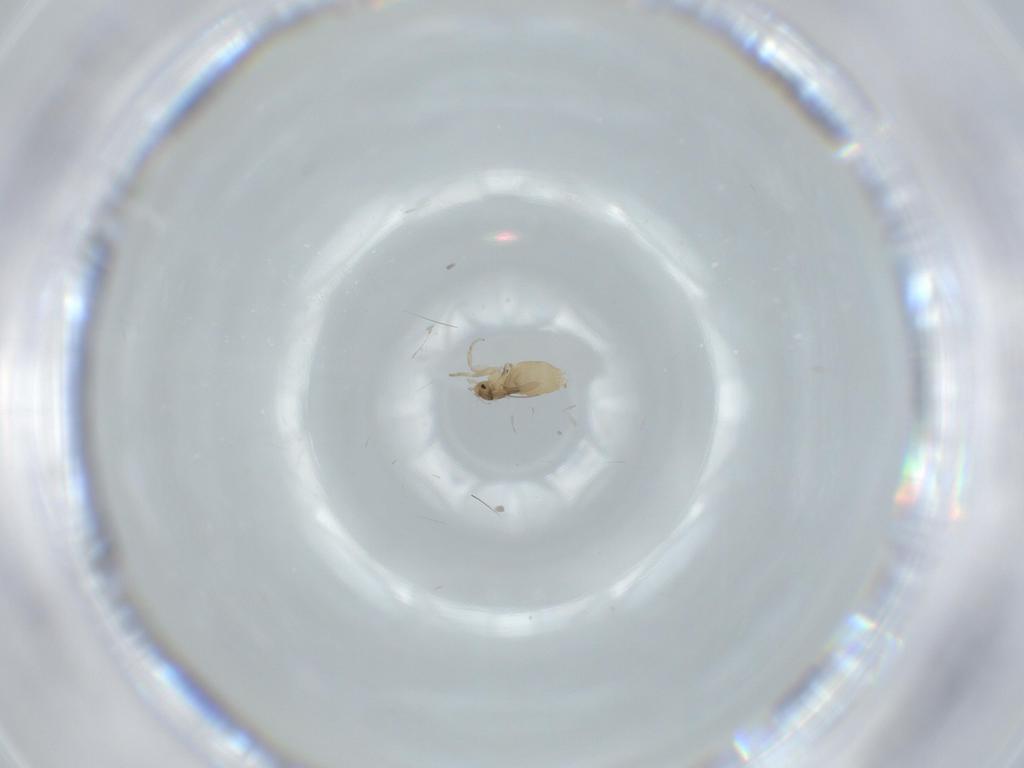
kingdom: Animalia
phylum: Arthropoda
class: Insecta
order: Diptera
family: Phoridae
